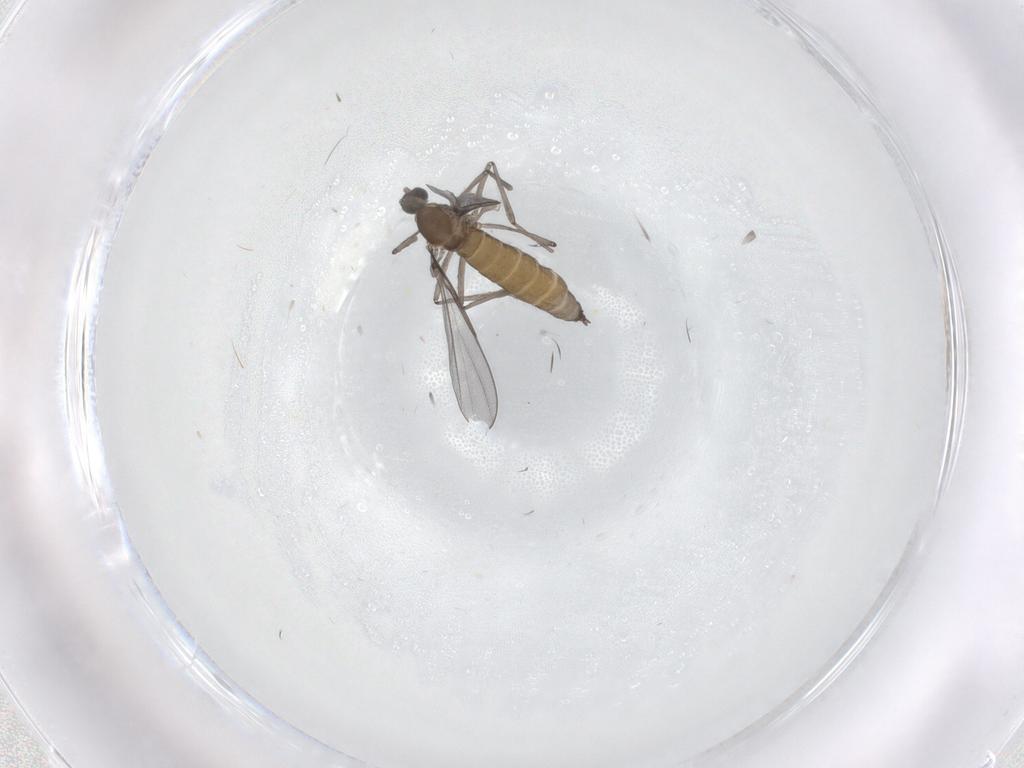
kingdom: Animalia
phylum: Arthropoda
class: Insecta
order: Diptera
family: Cecidomyiidae
